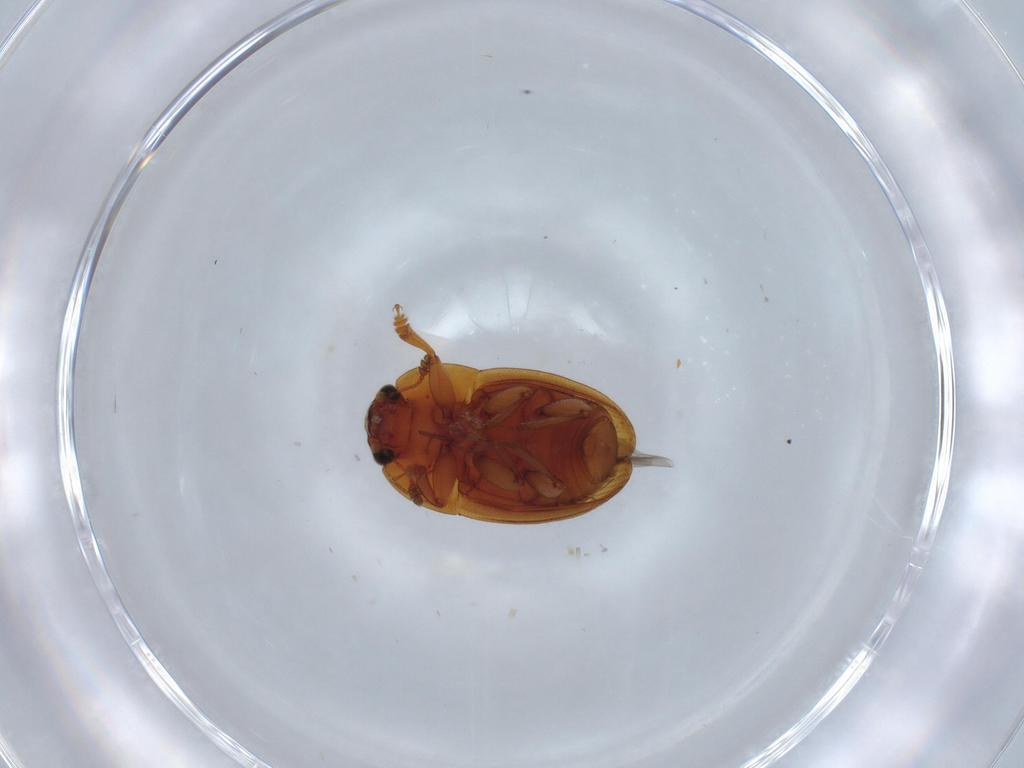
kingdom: Animalia
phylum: Arthropoda
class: Insecta
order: Coleoptera
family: Nitidulidae
